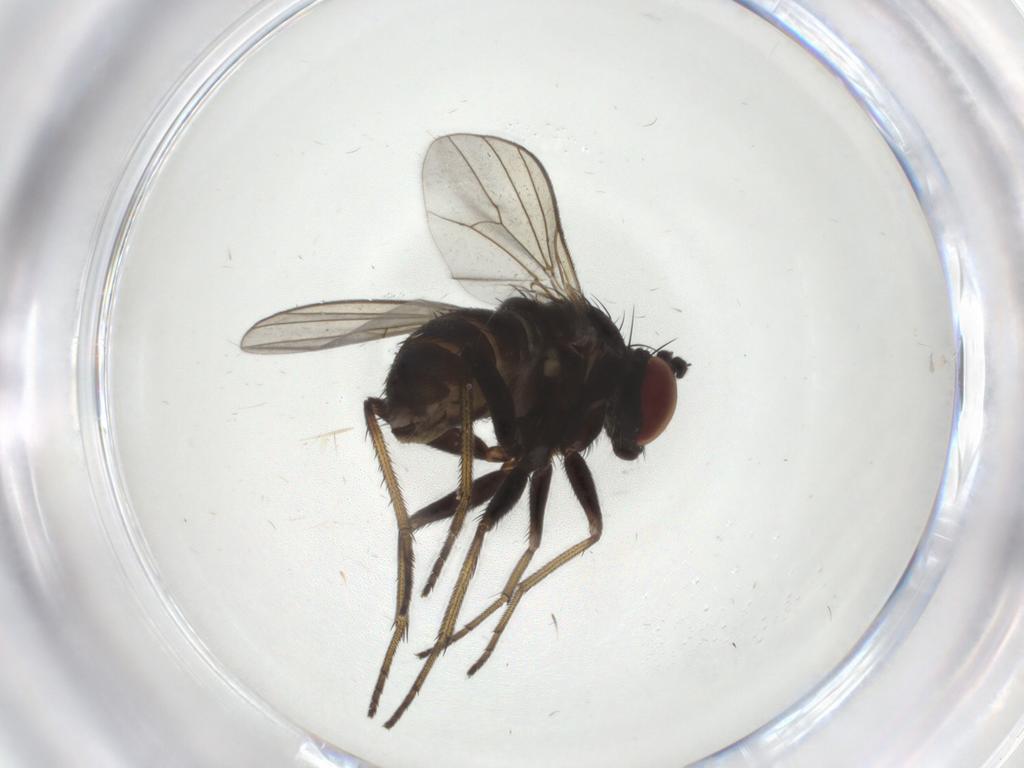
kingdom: Animalia
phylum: Arthropoda
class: Insecta
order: Diptera
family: Dolichopodidae
